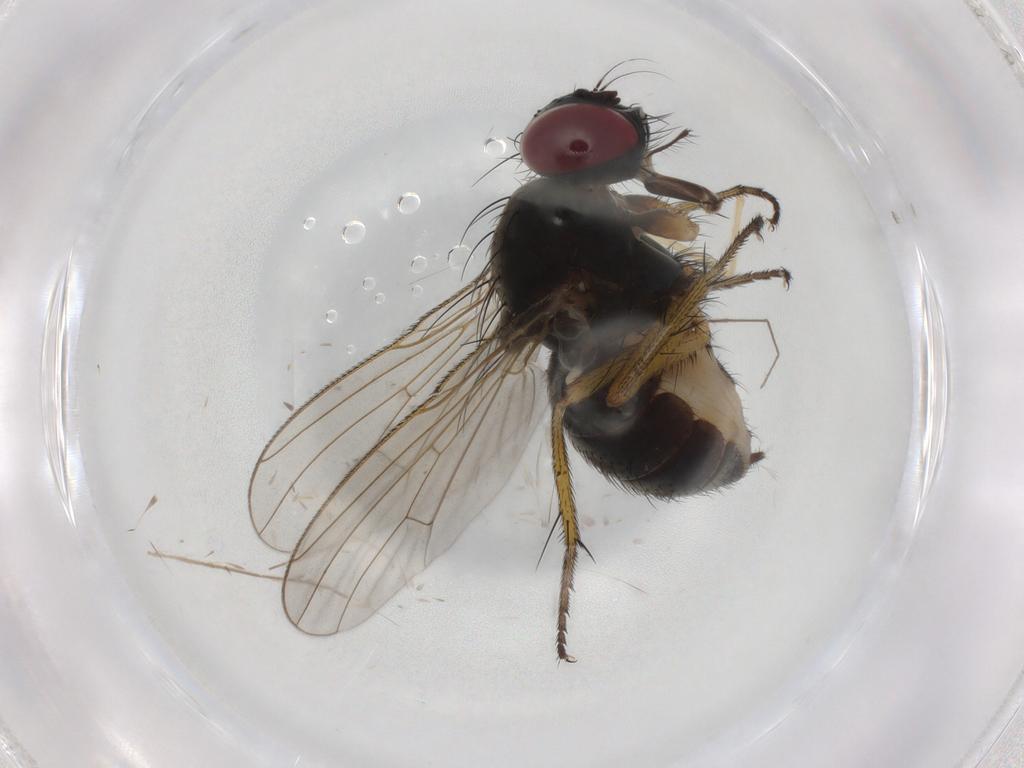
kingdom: Animalia
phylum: Arthropoda
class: Insecta
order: Diptera
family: Muscidae
